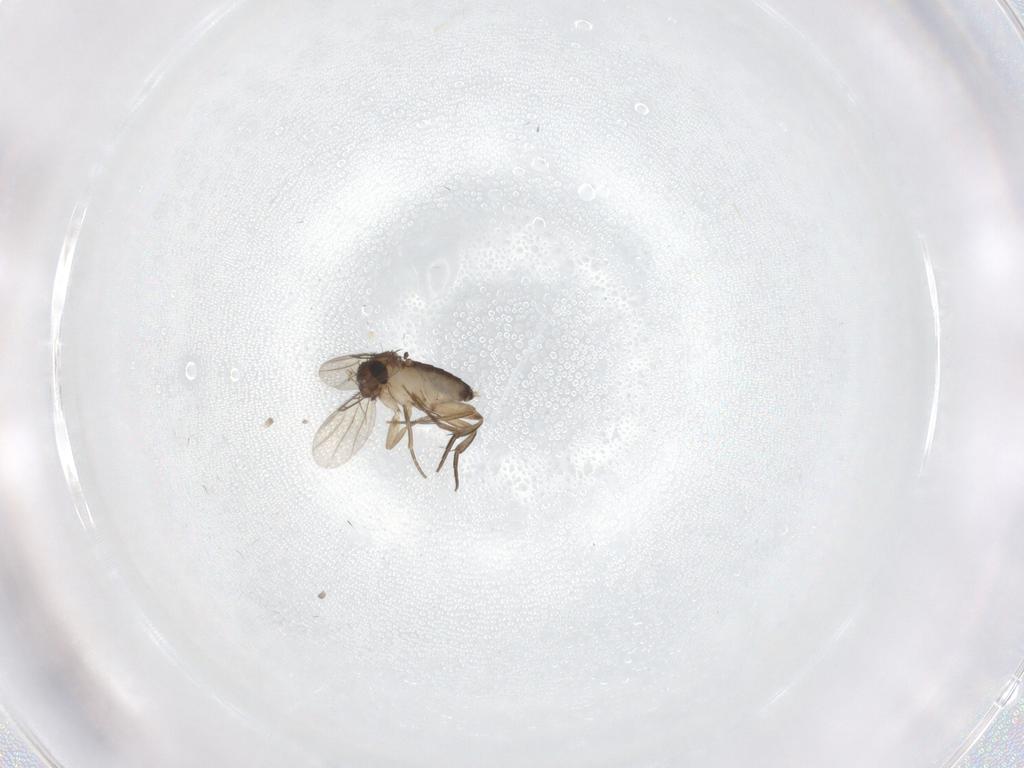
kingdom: Animalia
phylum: Arthropoda
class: Insecta
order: Diptera
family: Phoridae
